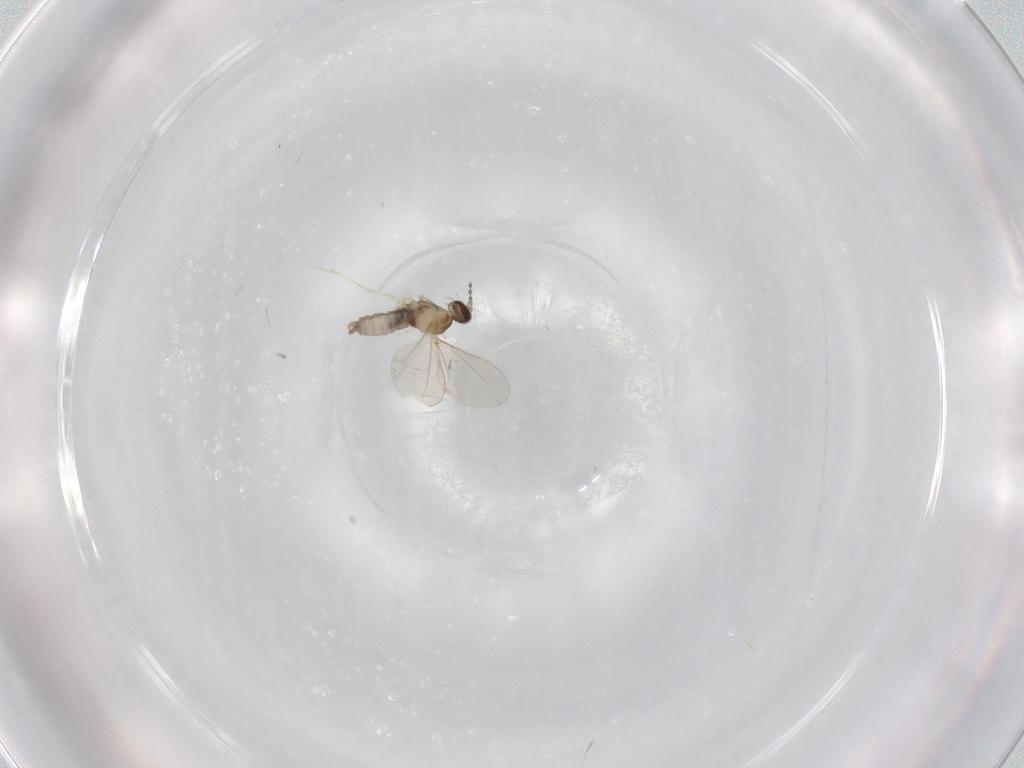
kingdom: Animalia
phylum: Arthropoda
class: Insecta
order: Diptera
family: Cecidomyiidae
